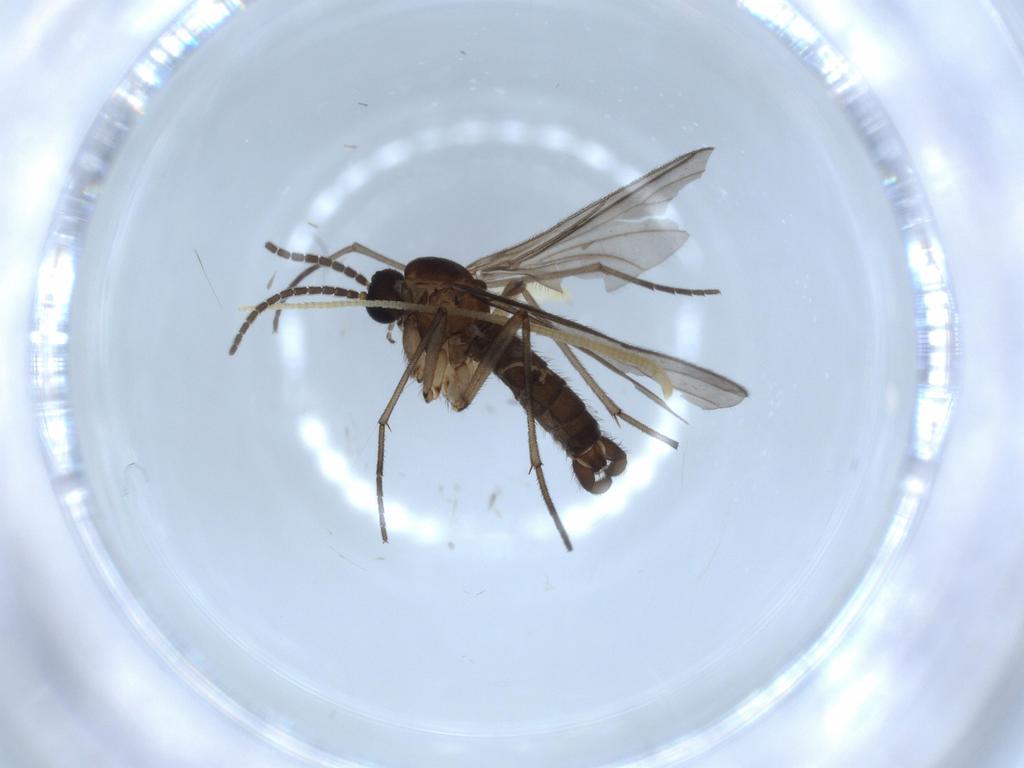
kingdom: Animalia
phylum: Arthropoda
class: Insecta
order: Diptera
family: Sciaridae
